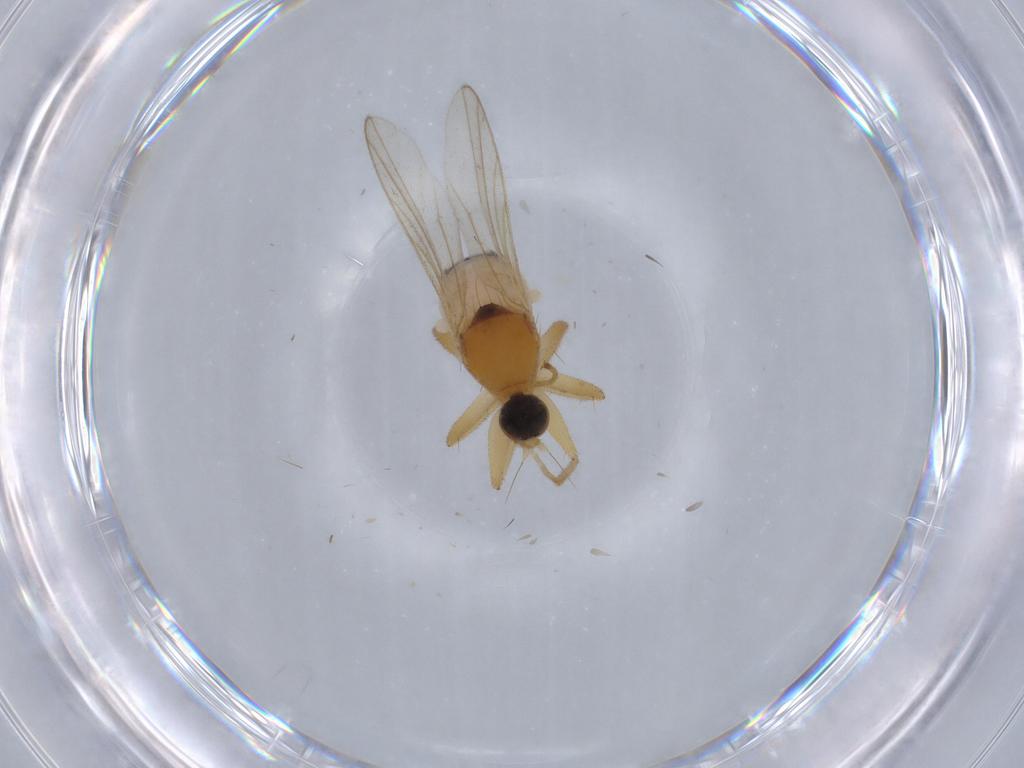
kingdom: Animalia
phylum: Arthropoda
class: Insecta
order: Diptera
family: Hybotidae
